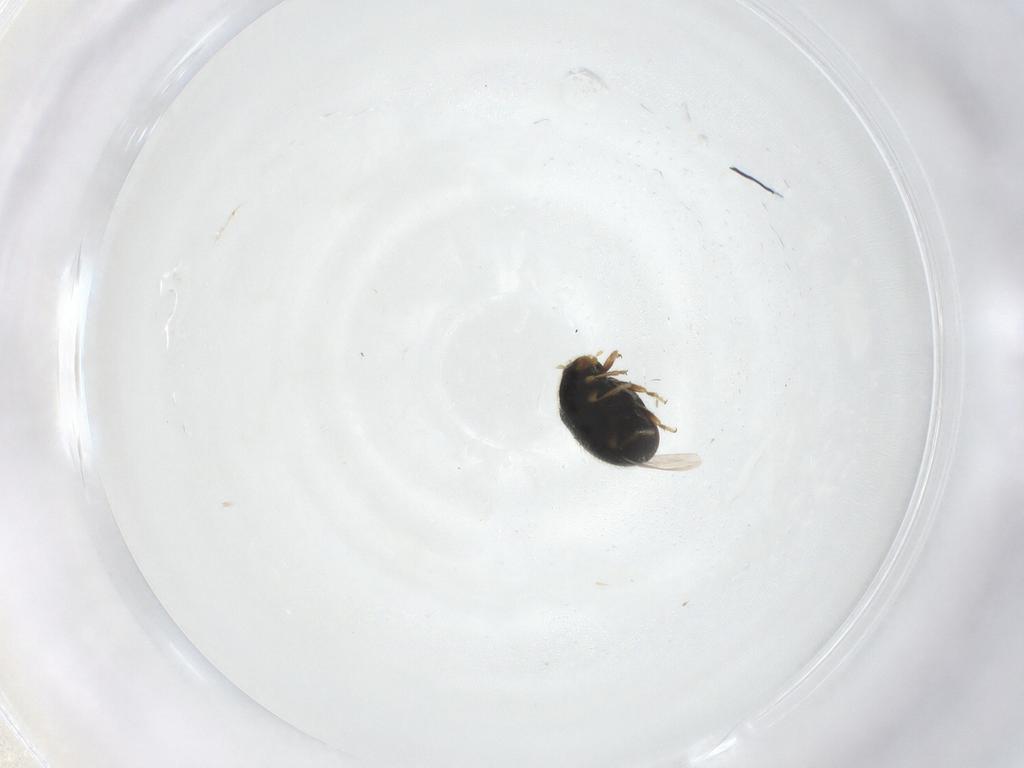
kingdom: Animalia
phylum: Arthropoda
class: Insecta
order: Coleoptera
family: Coccinellidae
